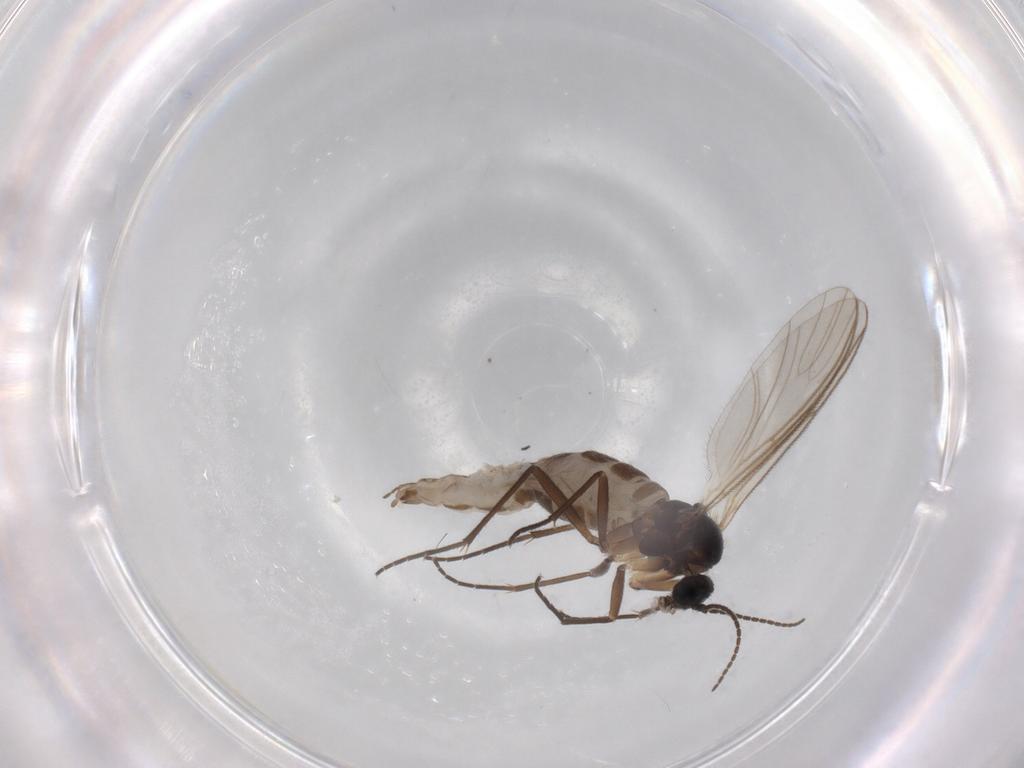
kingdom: Animalia
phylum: Arthropoda
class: Insecta
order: Diptera
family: Sciaridae
